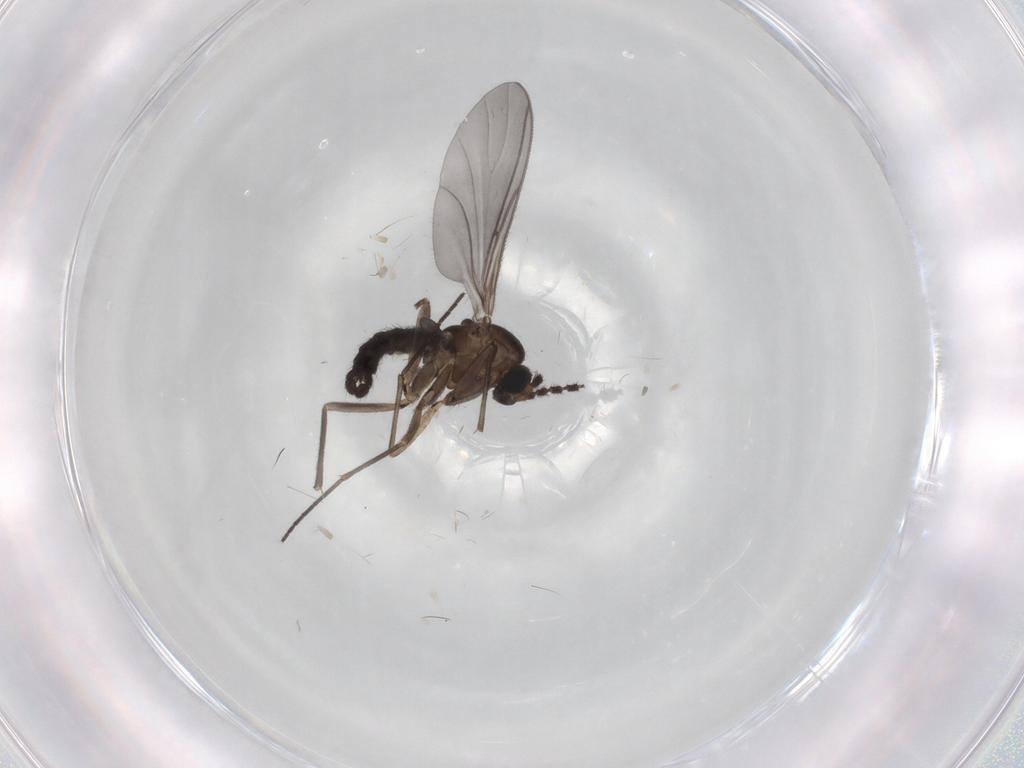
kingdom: Animalia
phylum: Arthropoda
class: Insecta
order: Diptera
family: Sciaridae
